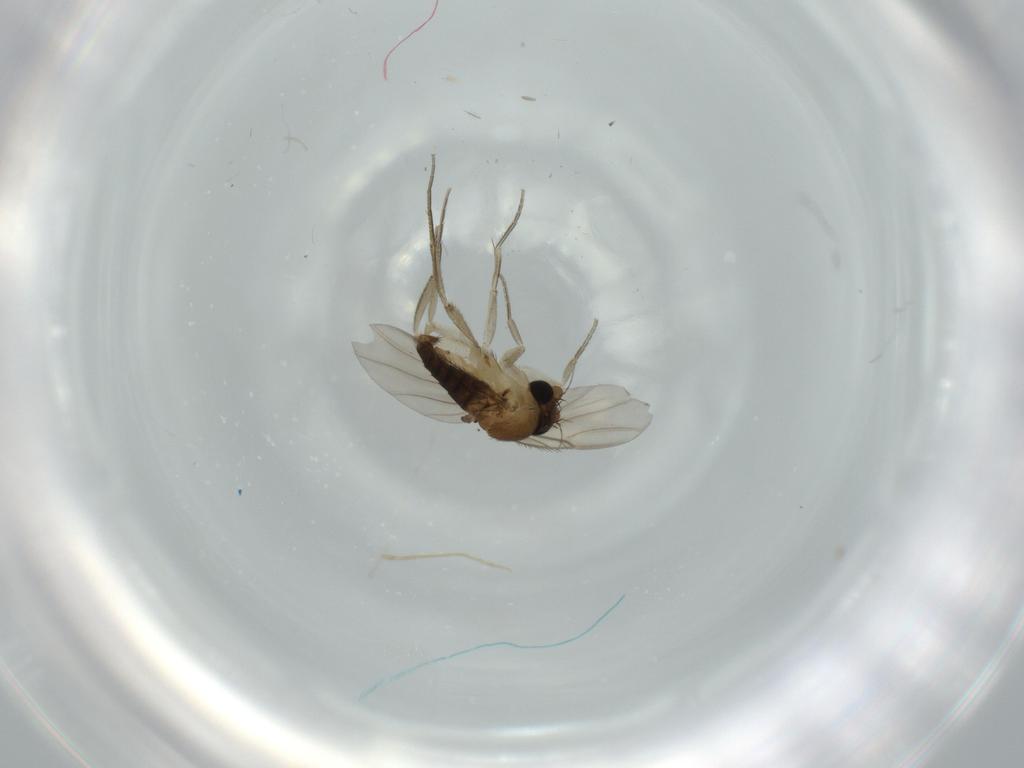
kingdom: Animalia
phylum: Arthropoda
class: Insecta
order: Diptera
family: Phoridae
